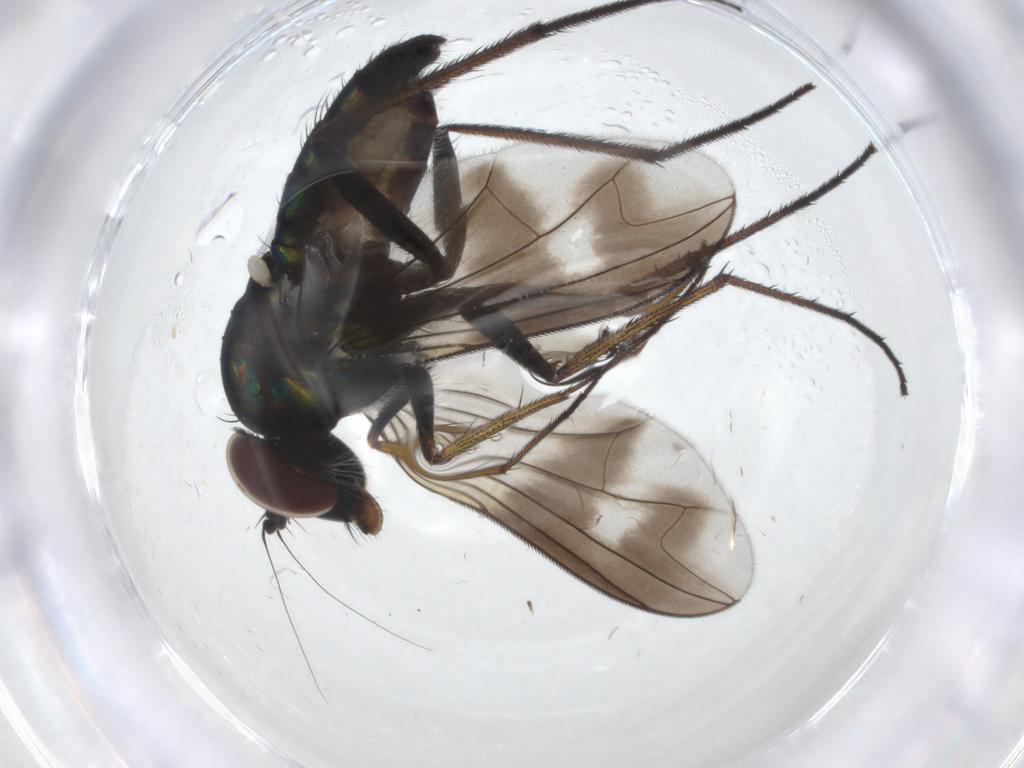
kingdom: Animalia
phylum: Arthropoda
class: Insecta
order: Diptera
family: Dolichopodidae
